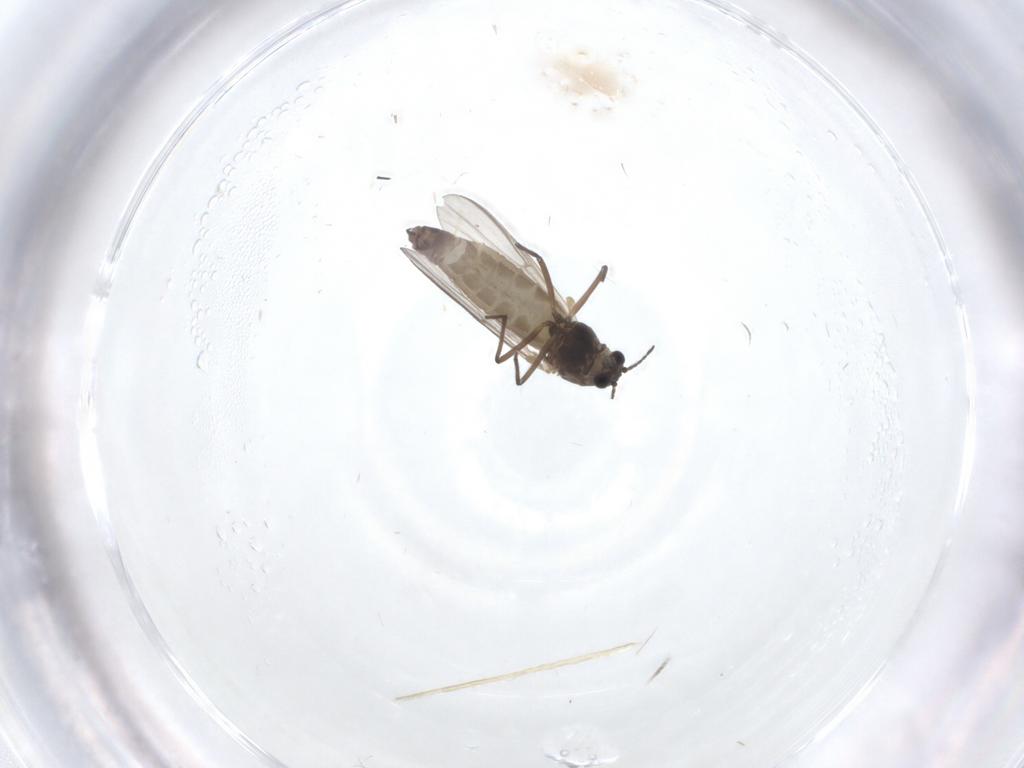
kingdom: Animalia
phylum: Arthropoda
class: Insecta
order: Diptera
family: Chironomidae
